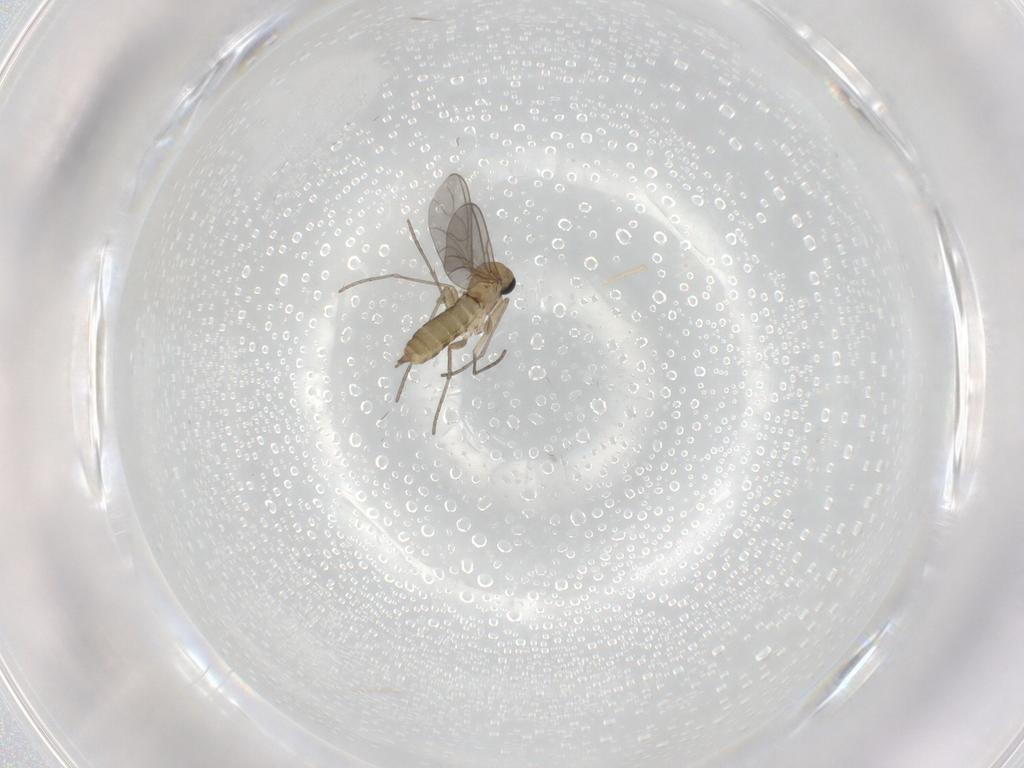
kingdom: Animalia
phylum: Arthropoda
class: Insecta
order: Diptera
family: Sciaridae
